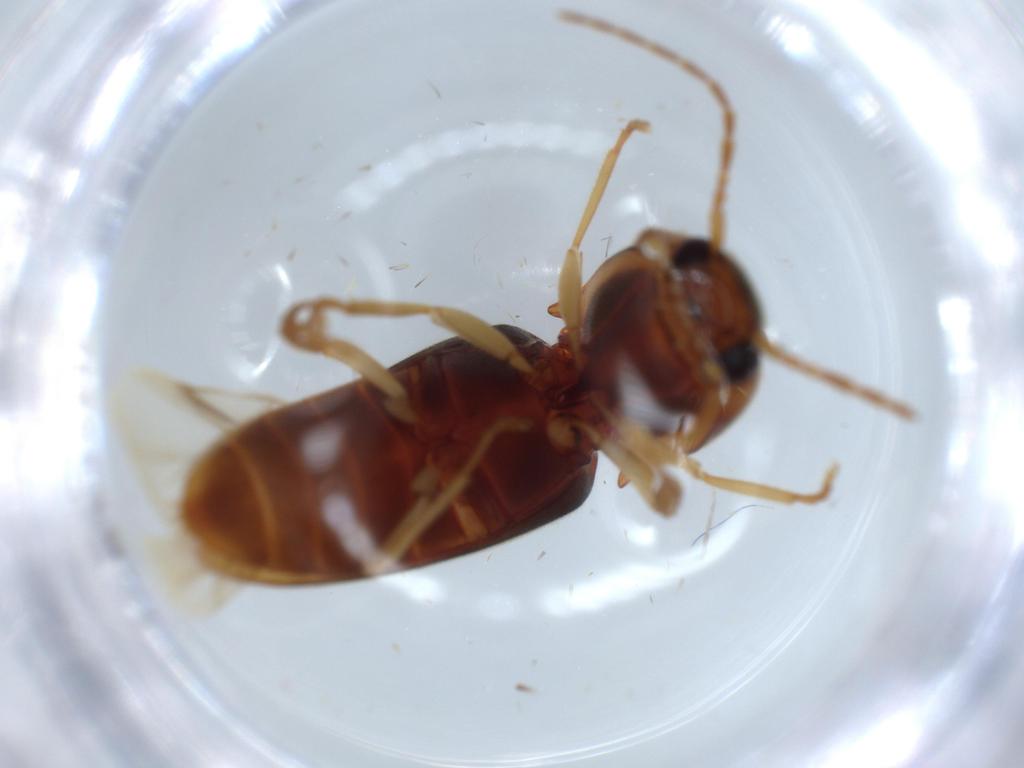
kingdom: Animalia
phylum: Arthropoda
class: Insecta
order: Coleoptera
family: Ptilodactylidae
